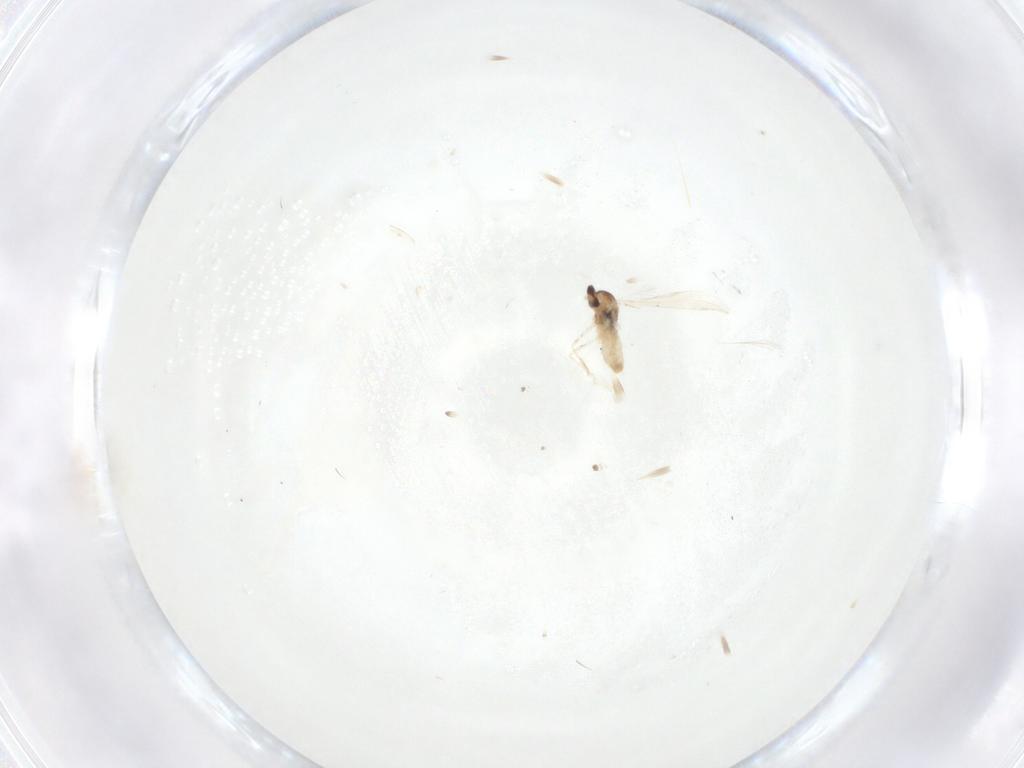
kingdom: Animalia
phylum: Arthropoda
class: Insecta
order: Diptera
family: Cecidomyiidae
